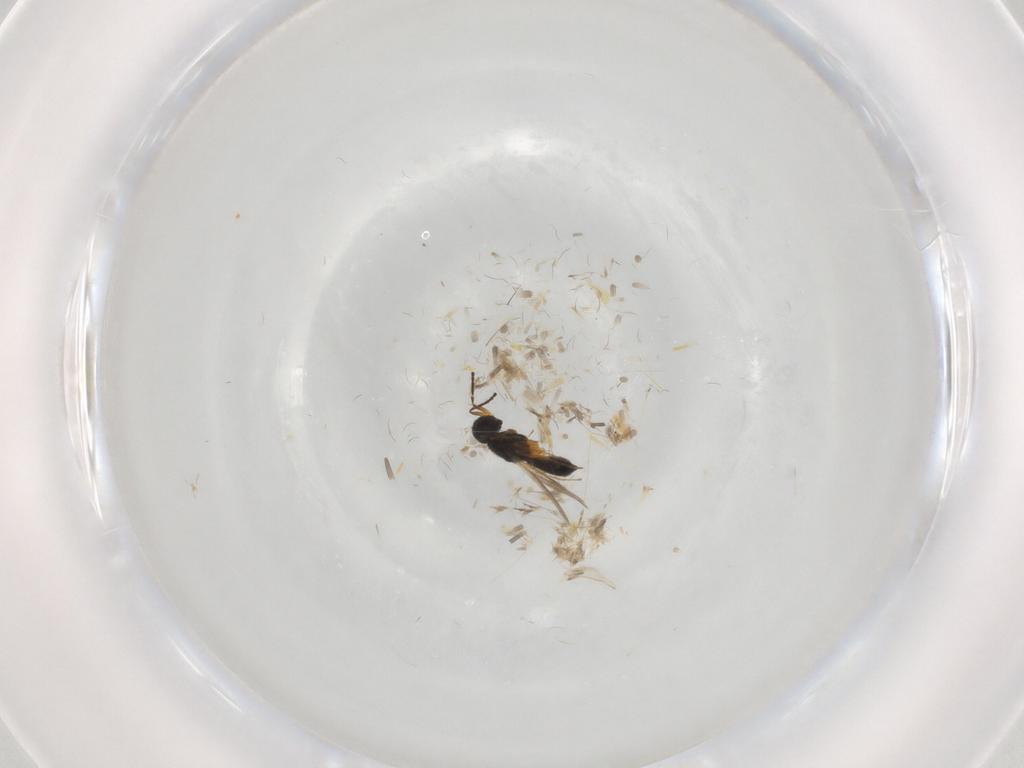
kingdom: Animalia
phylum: Arthropoda
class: Insecta
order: Hymenoptera
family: Scelionidae
